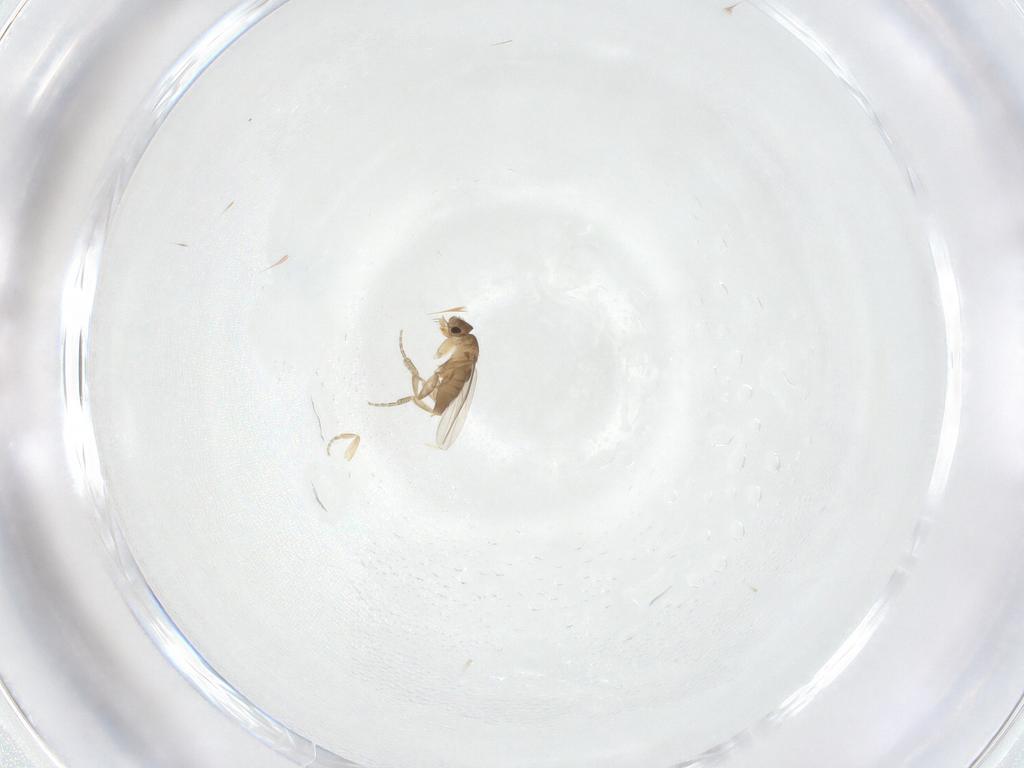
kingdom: Animalia
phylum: Arthropoda
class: Insecta
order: Diptera
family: Phoridae
